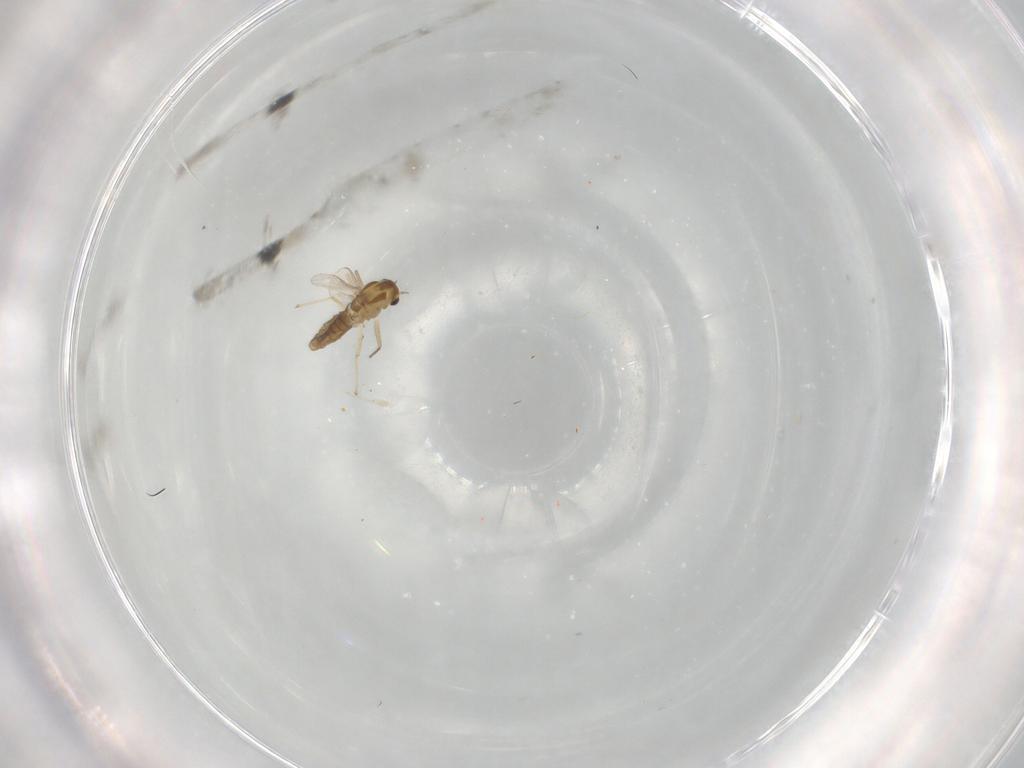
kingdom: Animalia
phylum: Arthropoda
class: Insecta
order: Diptera
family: Chironomidae
